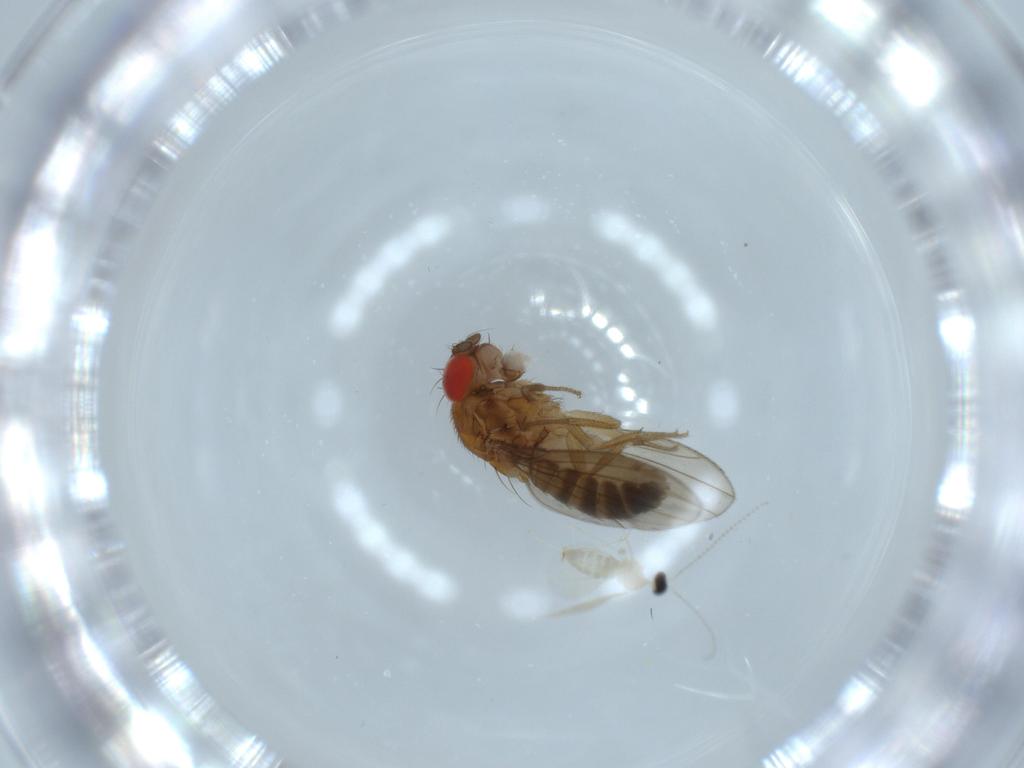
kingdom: Animalia
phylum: Arthropoda
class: Insecta
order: Diptera
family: Drosophilidae
